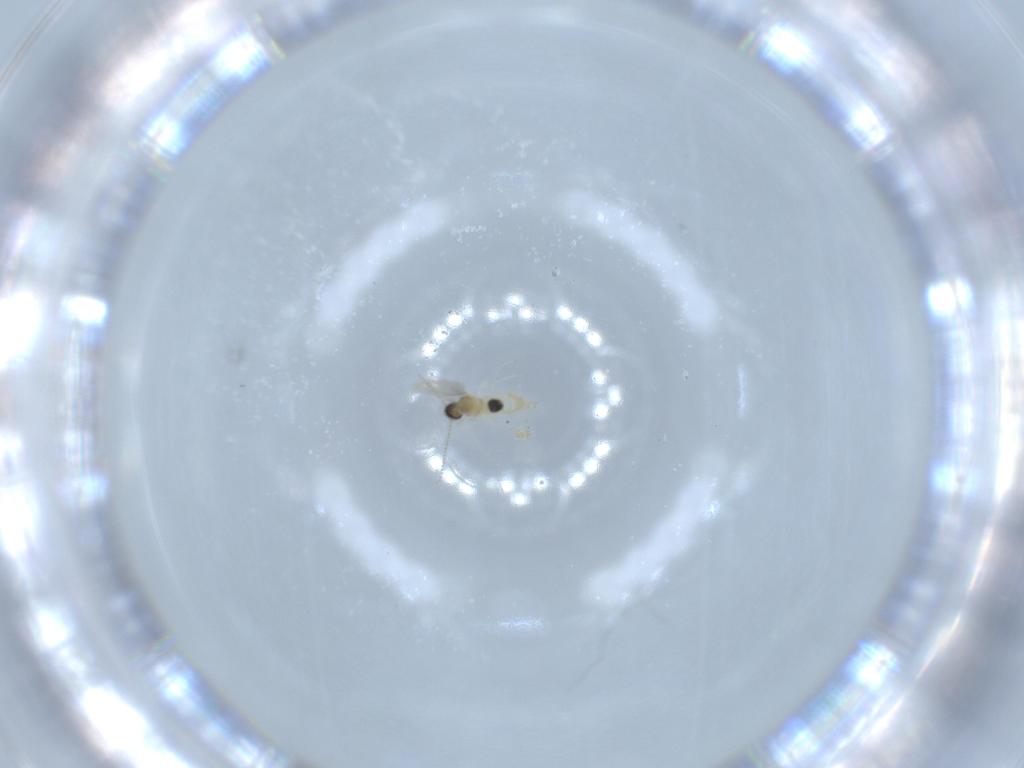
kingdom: Animalia
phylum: Arthropoda
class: Insecta
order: Diptera
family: Dolichopodidae
